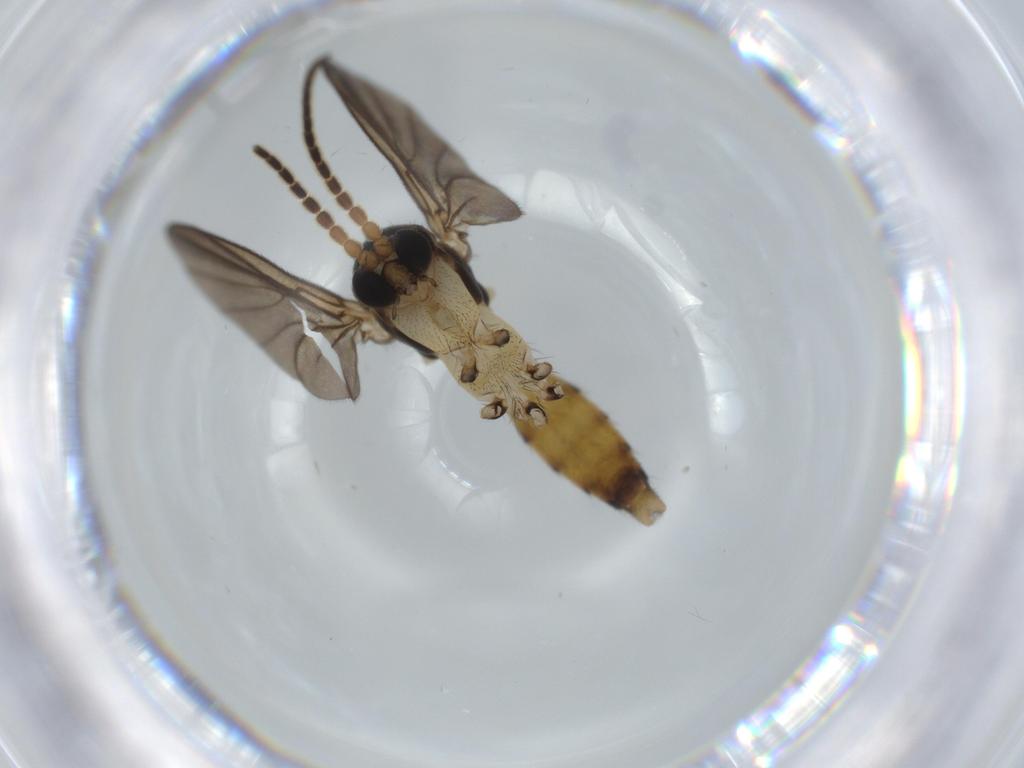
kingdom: Animalia
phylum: Arthropoda
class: Insecta
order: Diptera
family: Cecidomyiidae
